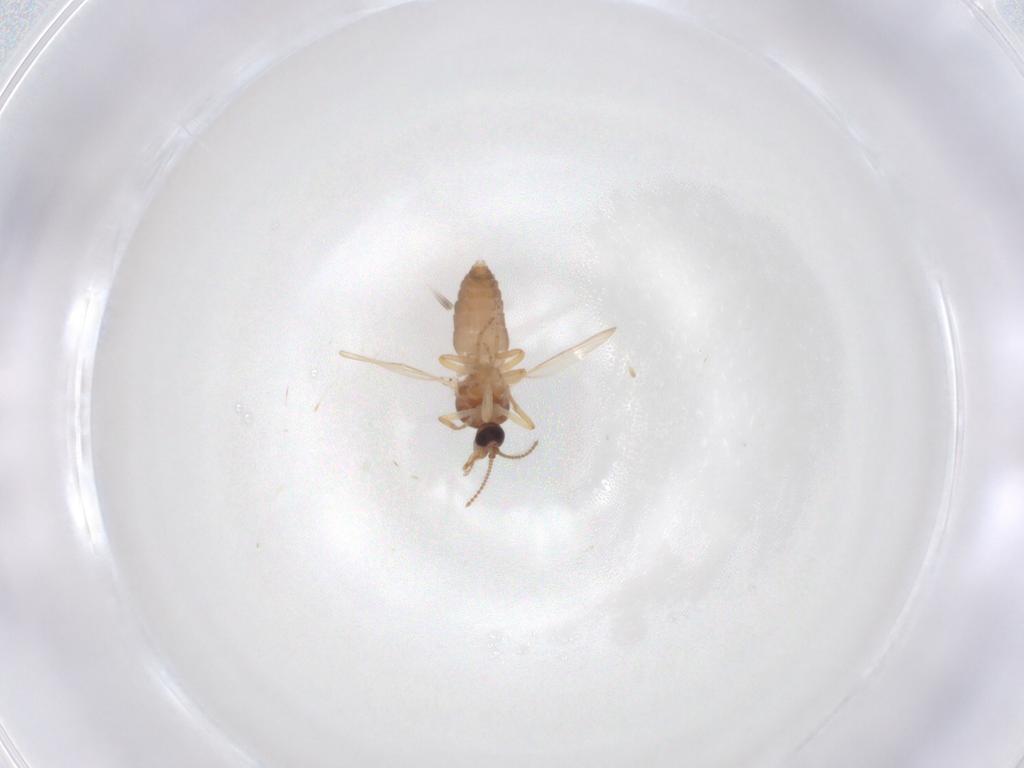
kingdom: Animalia
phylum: Arthropoda
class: Insecta
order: Diptera
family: Ceratopogonidae
